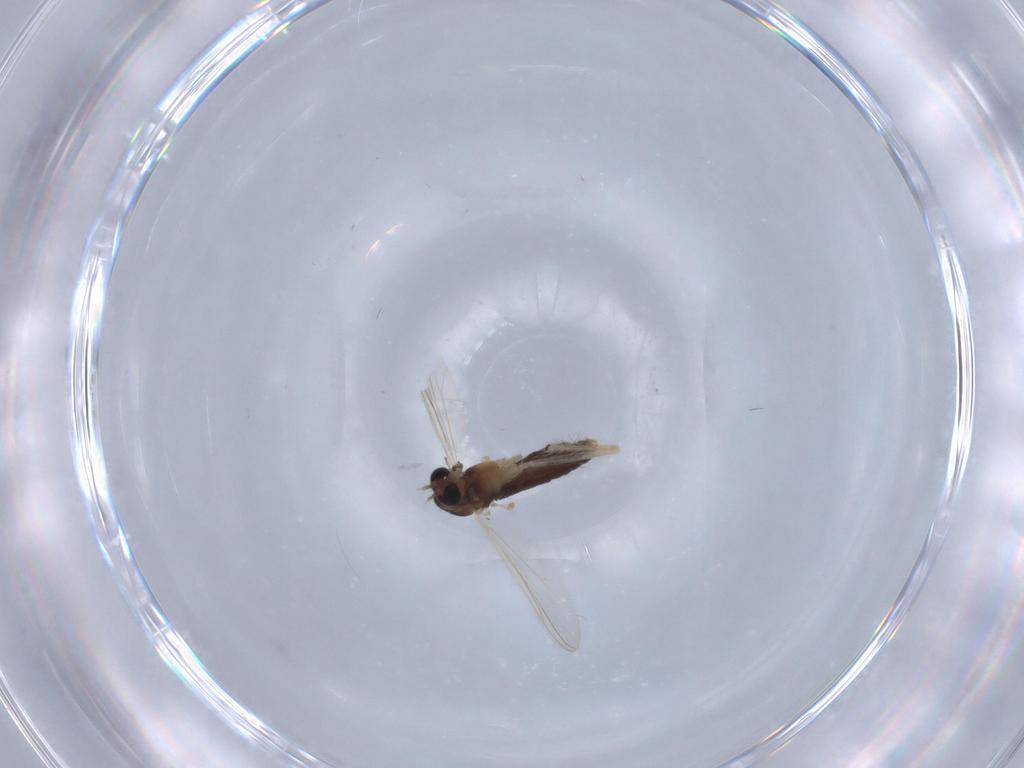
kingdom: Animalia
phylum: Arthropoda
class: Insecta
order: Diptera
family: Chironomidae
